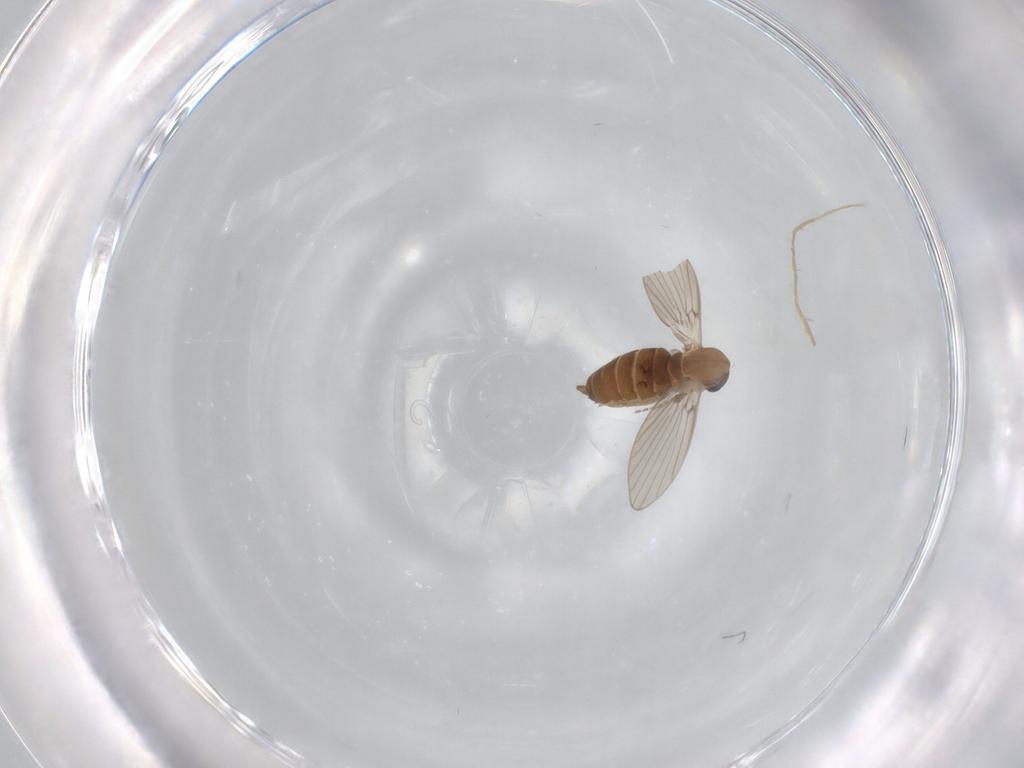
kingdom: Animalia
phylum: Arthropoda
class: Insecta
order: Diptera
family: Psychodidae
